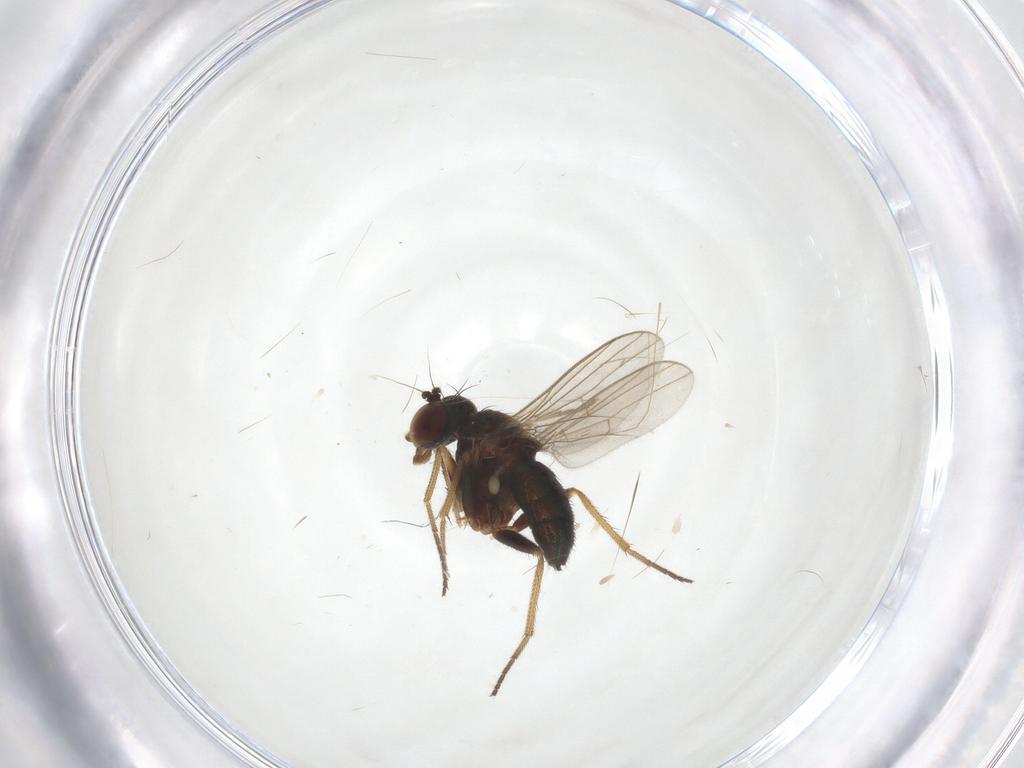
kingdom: Animalia
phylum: Arthropoda
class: Insecta
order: Diptera
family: Dolichopodidae
